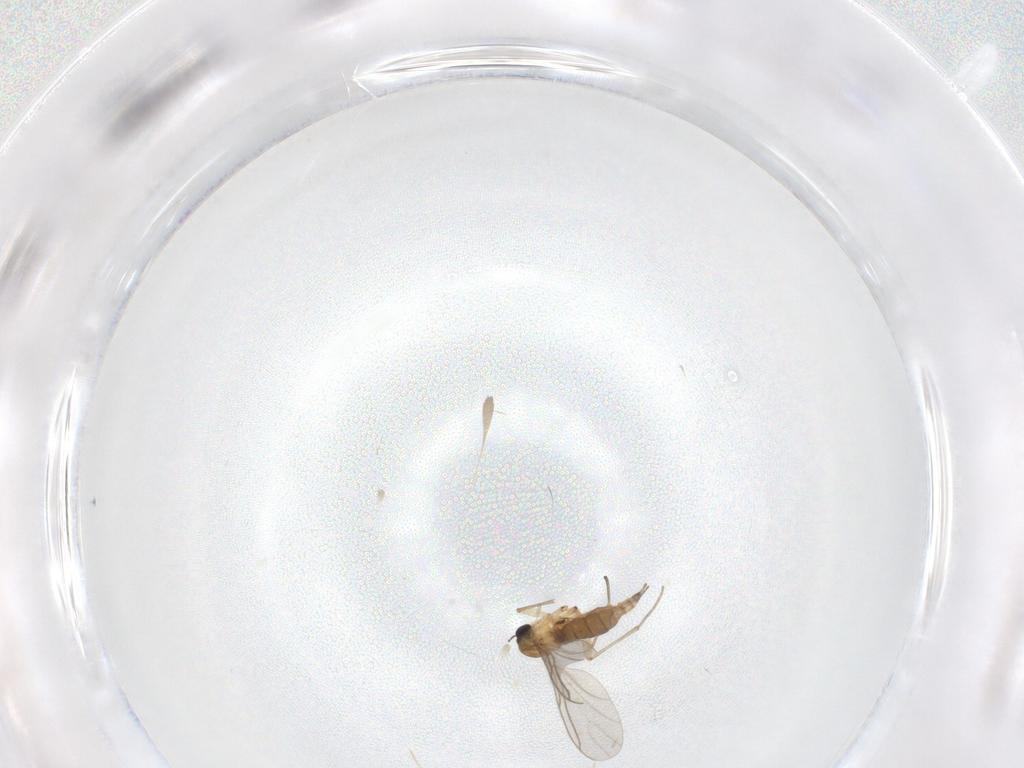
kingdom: Animalia
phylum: Arthropoda
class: Insecta
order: Diptera
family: Sciaridae
